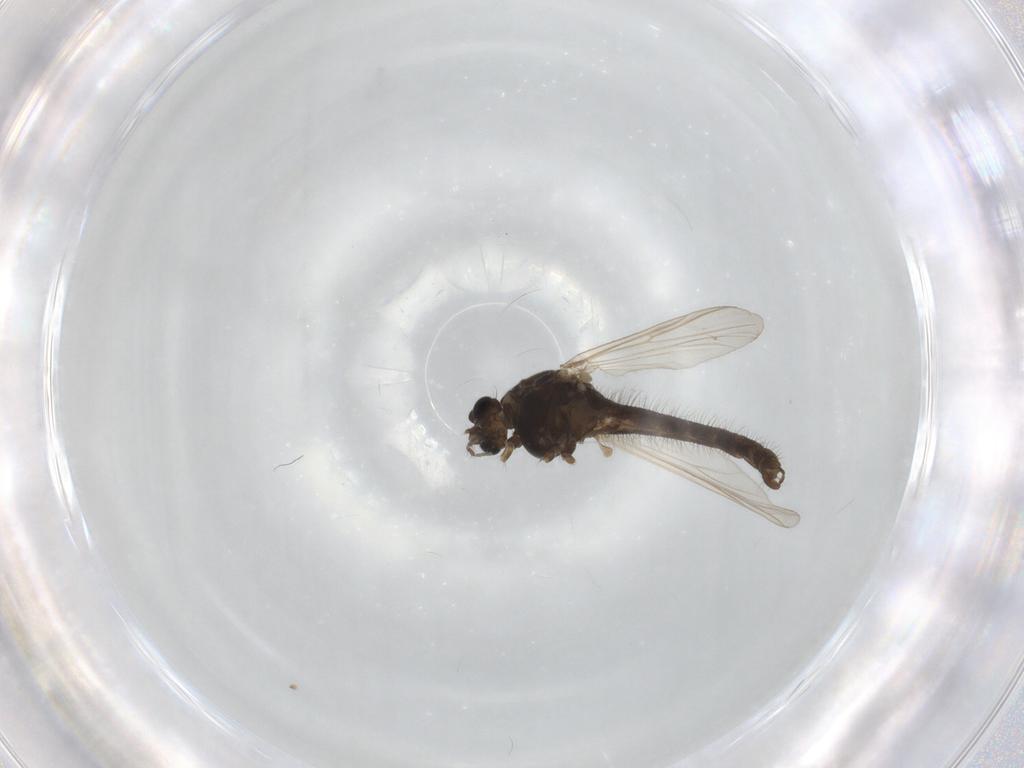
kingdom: Animalia
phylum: Arthropoda
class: Insecta
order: Diptera
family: Chironomidae
